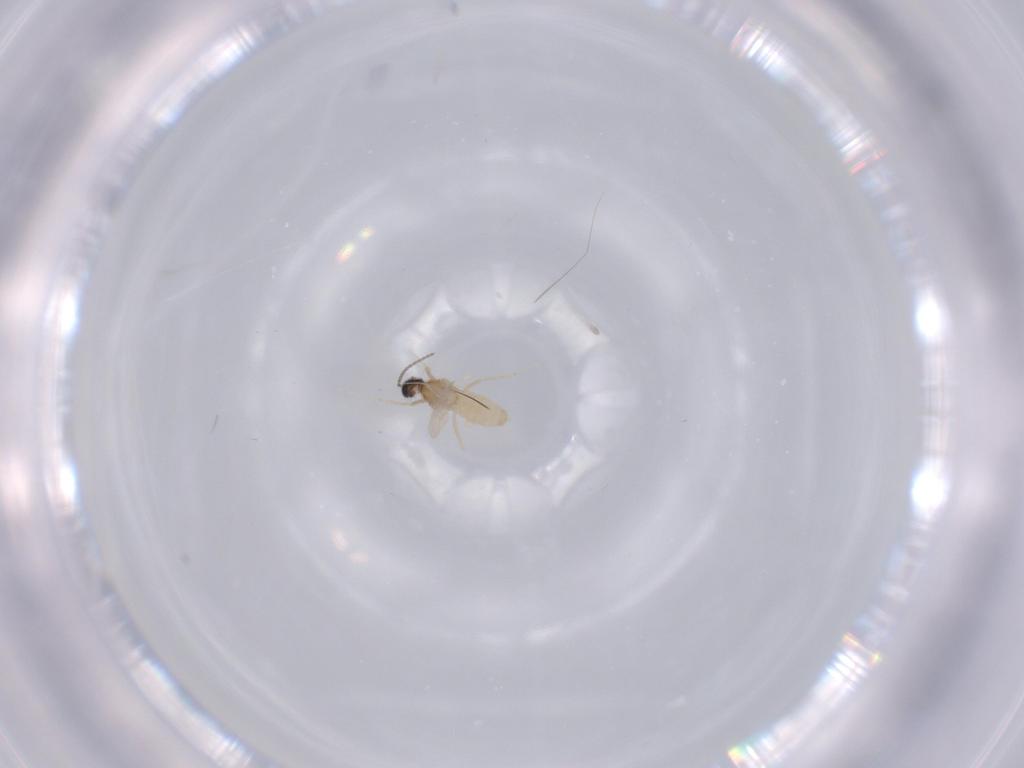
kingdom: Animalia
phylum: Arthropoda
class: Insecta
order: Diptera
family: Cecidomyiidae
